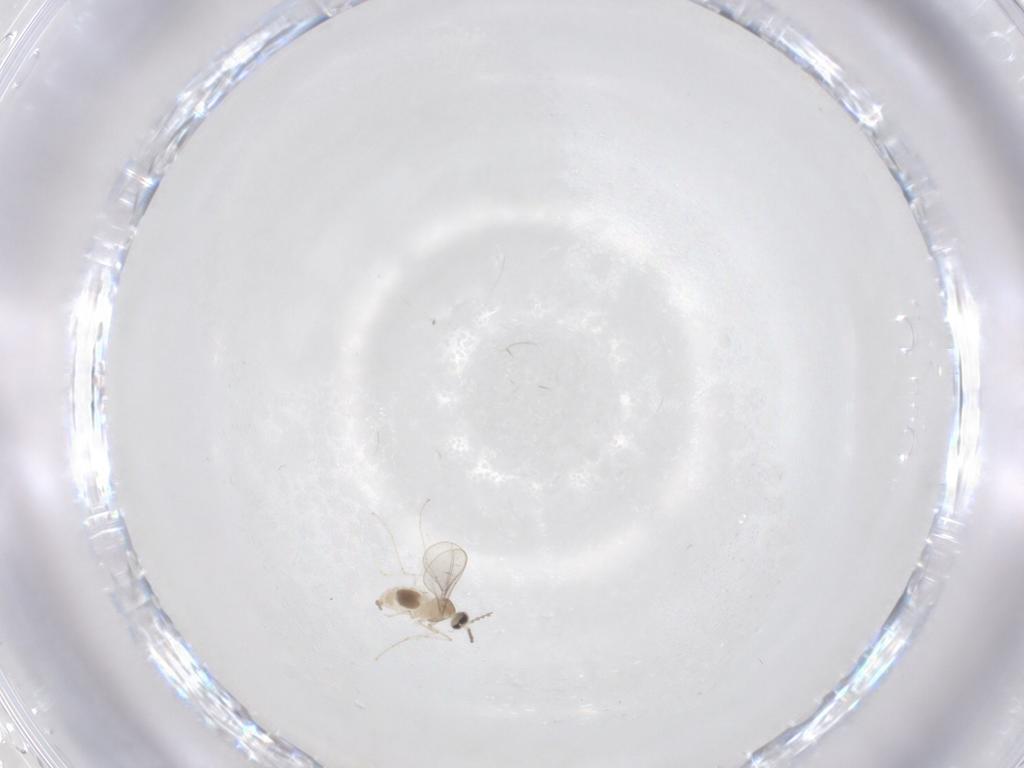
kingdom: Animalia
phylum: Arthropoda
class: Insecta
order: Diptera
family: Cecidomyiidae
